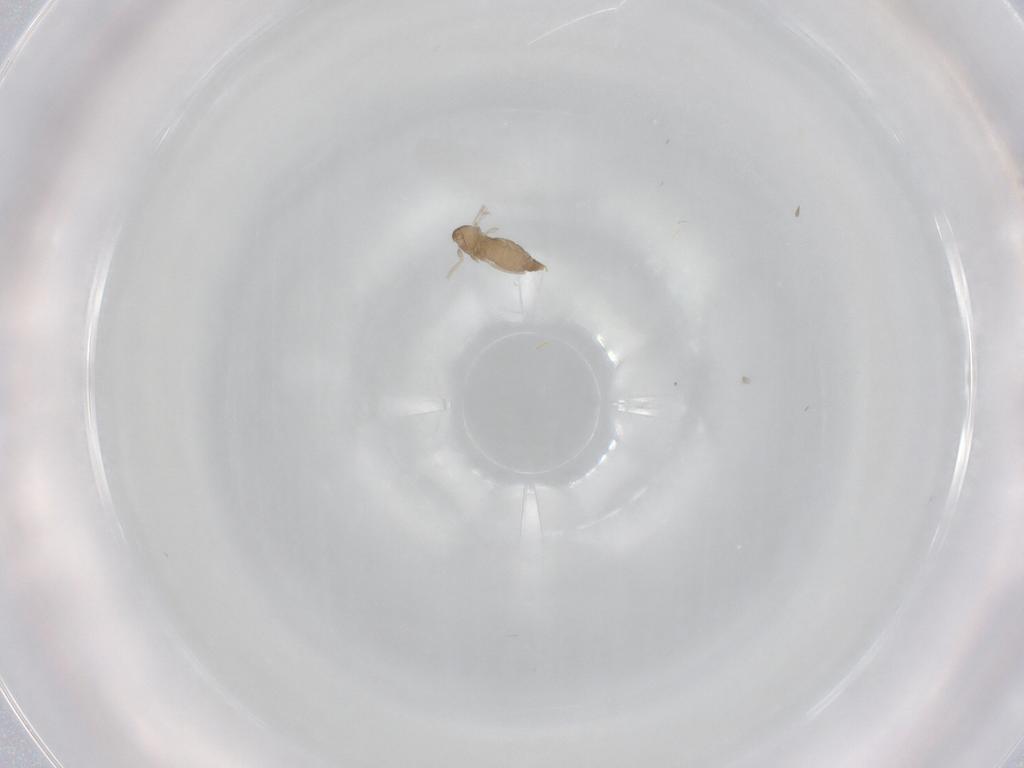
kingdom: Animalia
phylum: Arthropoda
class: Insecta
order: Diptera
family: Cecidomyiidae
